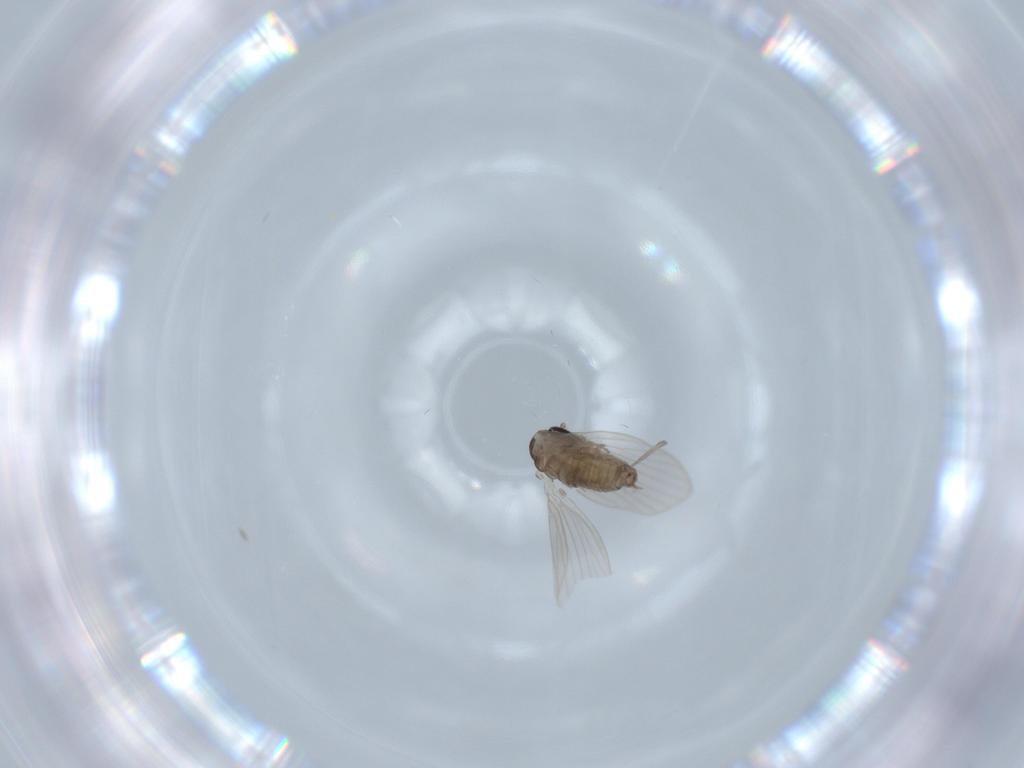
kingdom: Animalia
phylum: Arthropoda
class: Insecta
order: Diptera
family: Psychodidae
